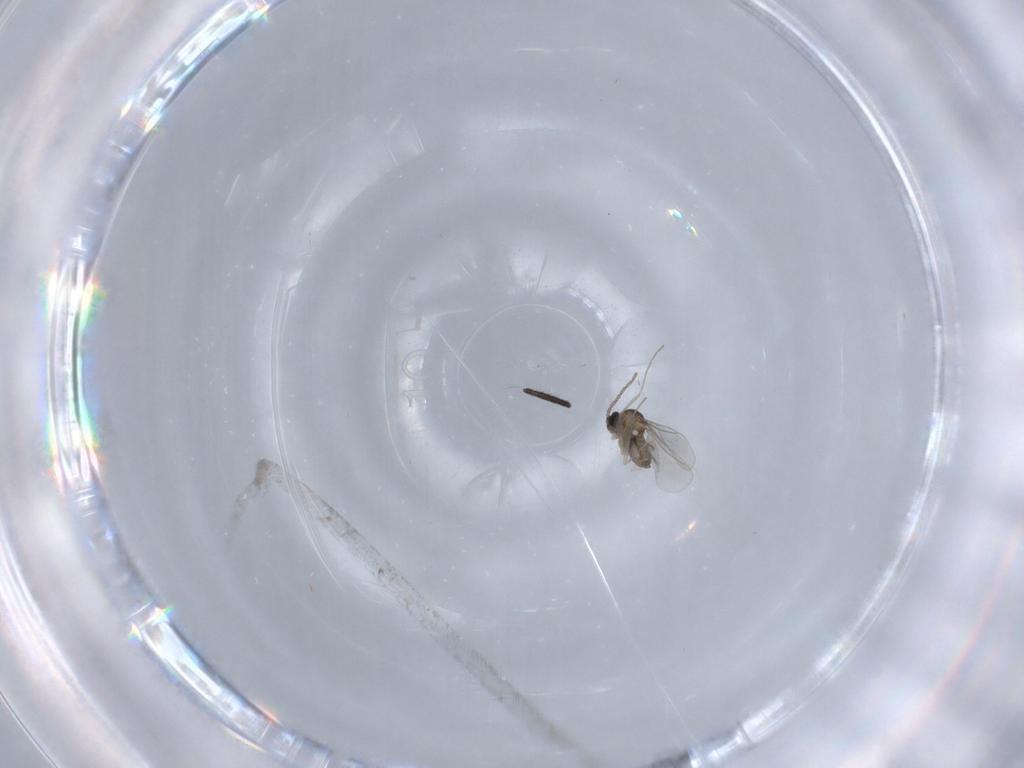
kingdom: Animalia
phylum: Arthropoda
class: Insecta
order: Diptera
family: Cecidomyiidae
